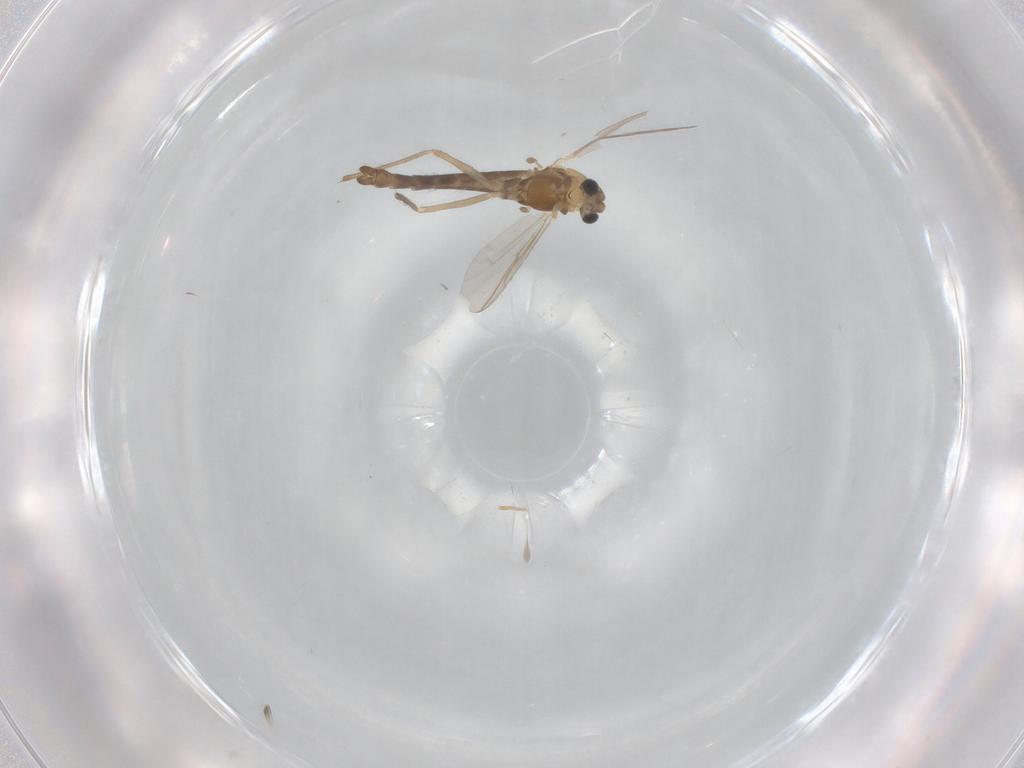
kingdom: Animalia
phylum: Arthropoda
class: Insecta
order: Diptera
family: Chironomidae
